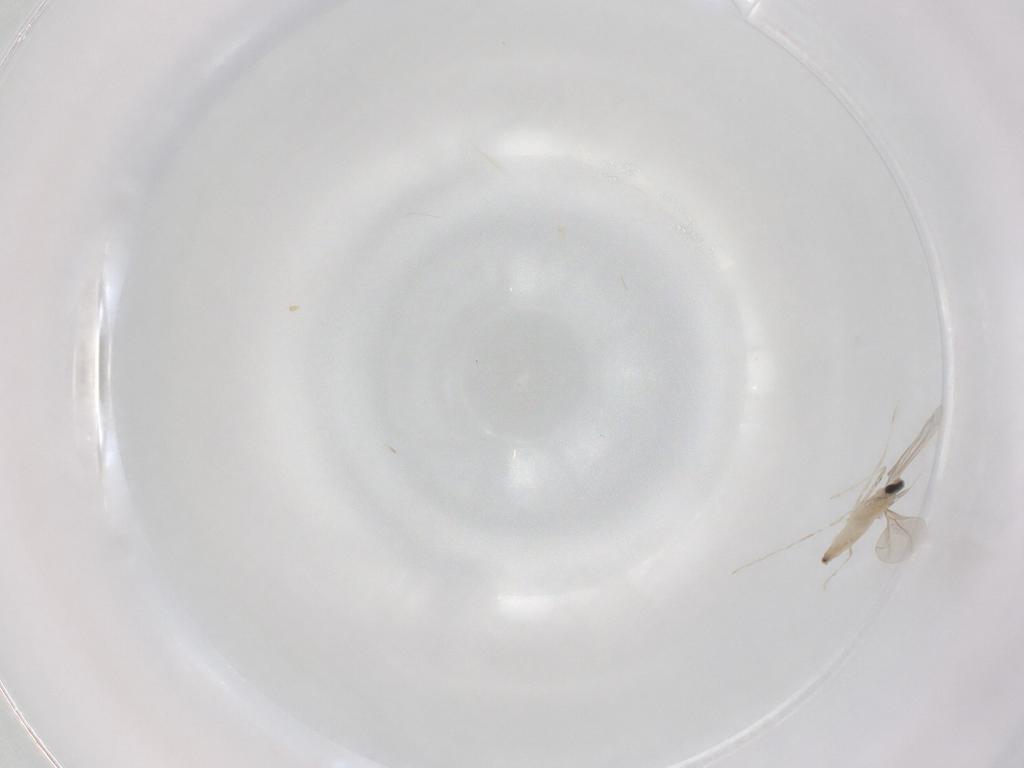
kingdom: Animalia
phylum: Arthropoda
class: Insecta
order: Diptera
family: Cecidomyiidae
